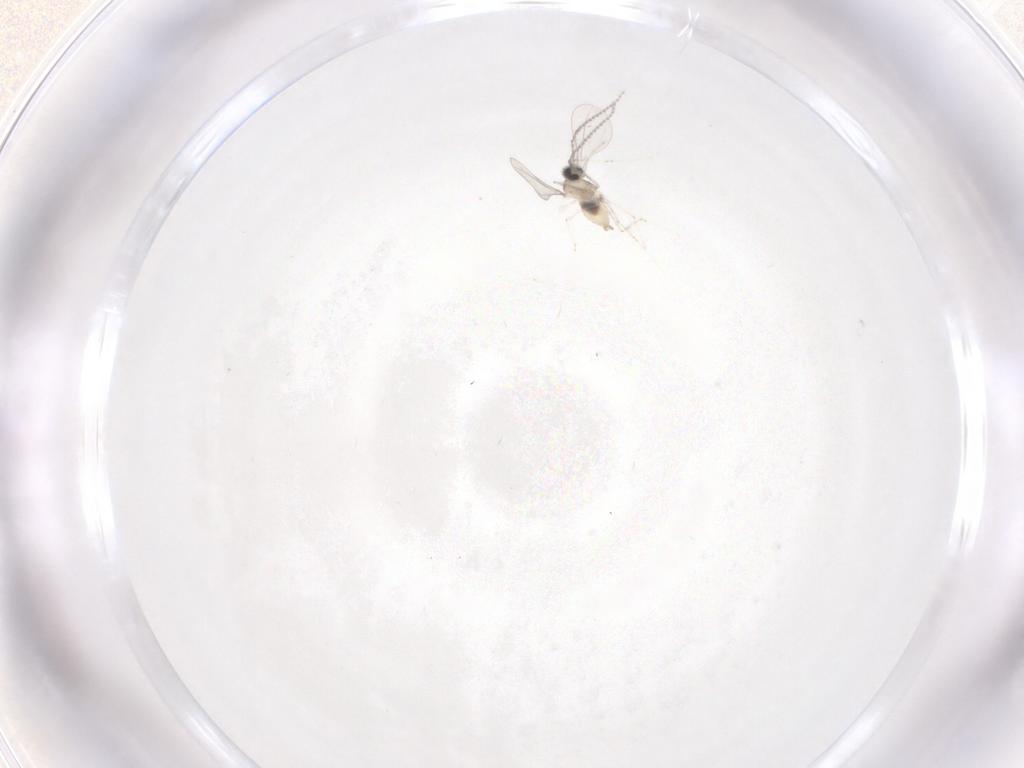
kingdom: Animalia
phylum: Arthropoda
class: Insecta
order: Diptera
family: Cecidomyiidae
